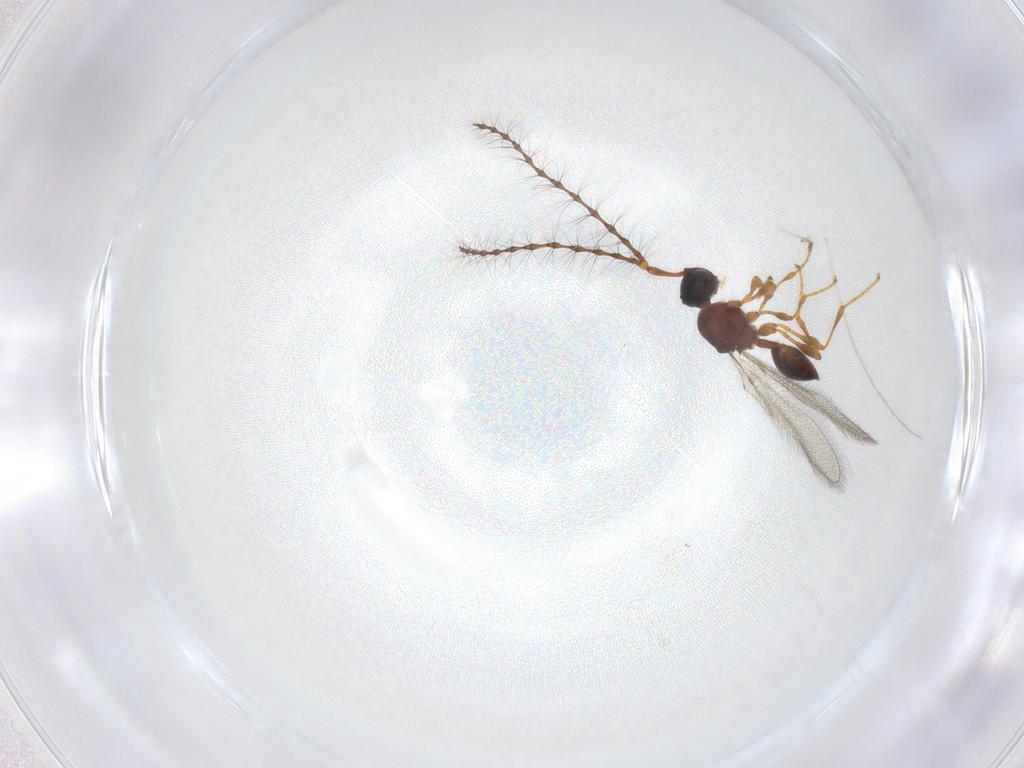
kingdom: Animalia
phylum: Arthropoda
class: Insecta
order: Hymenoptera
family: Diapriidae
